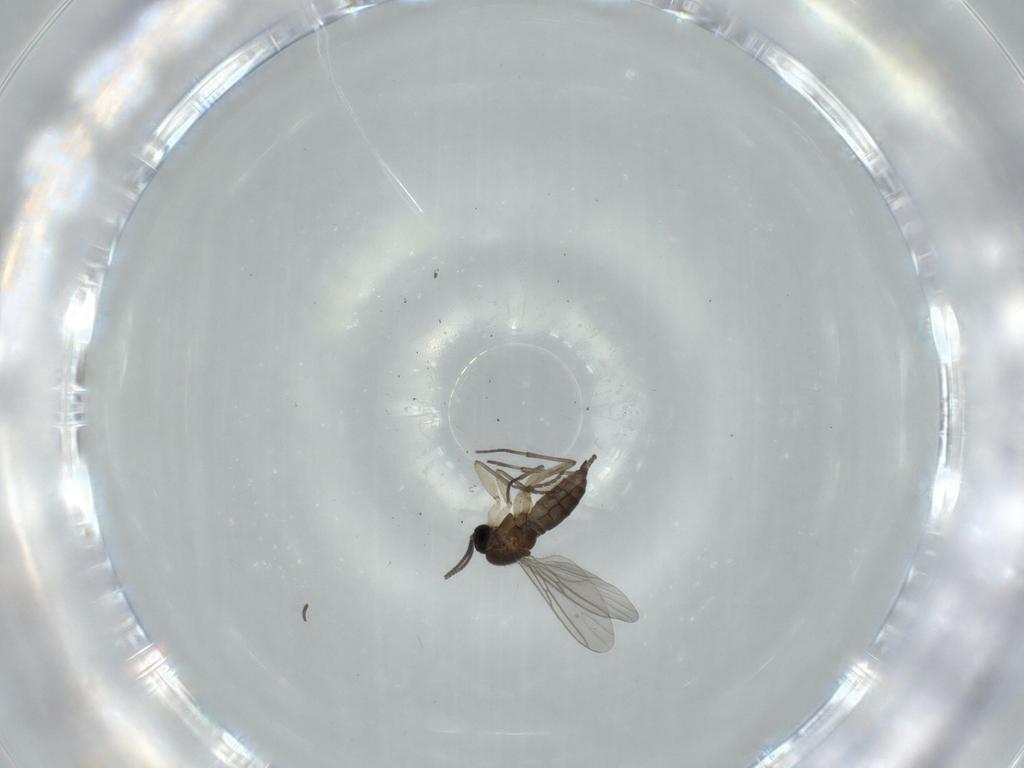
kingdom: Animalia
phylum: Arthropoda
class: Insecta
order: Diptera
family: Sciaridae
